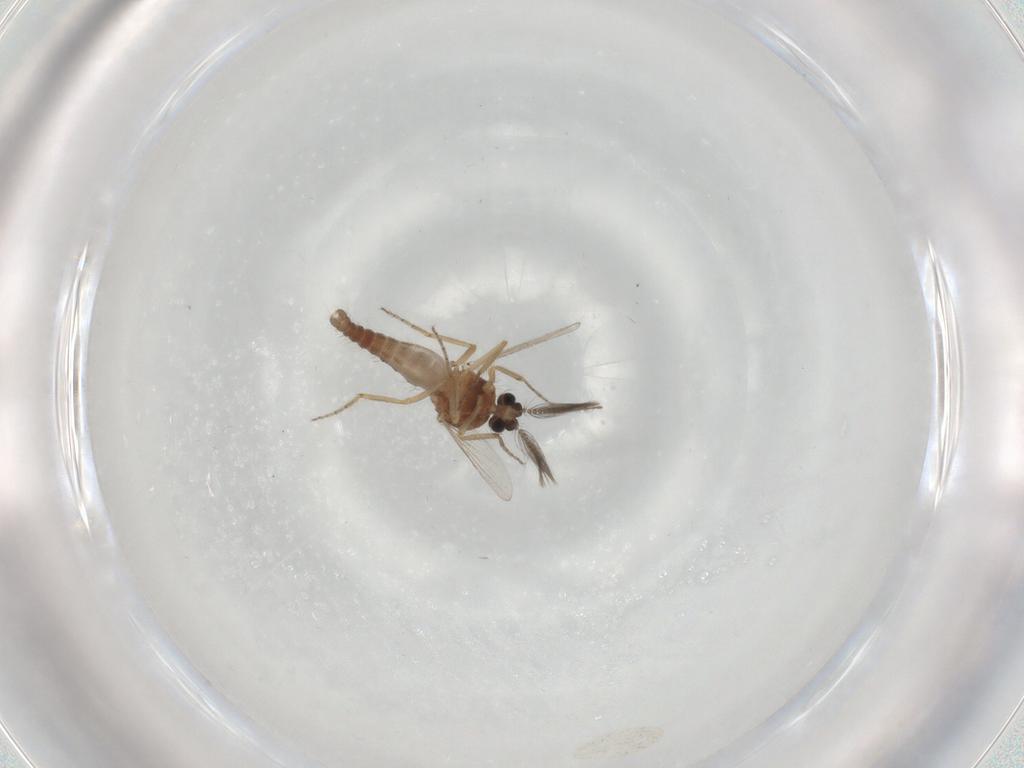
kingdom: Animalia
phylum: Arthropoda
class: Insecta
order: Diptera
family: Ceratopogonidae
